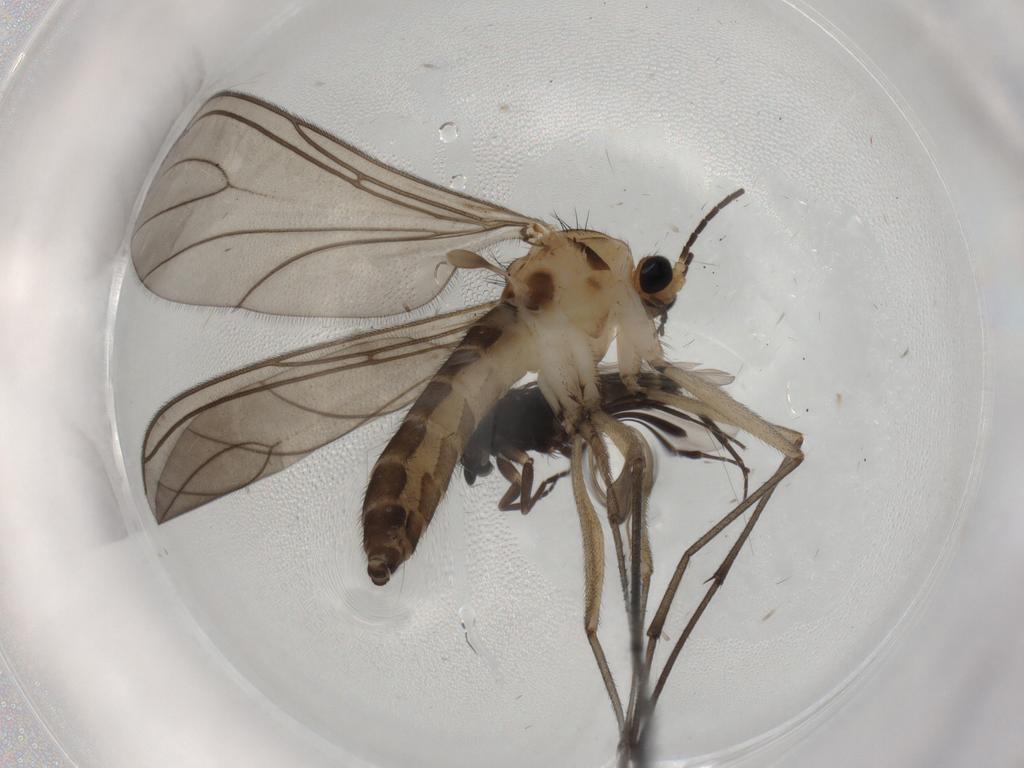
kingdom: Animalia
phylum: Arthropoda
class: Insecta
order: Diptera
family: Sciaridae
